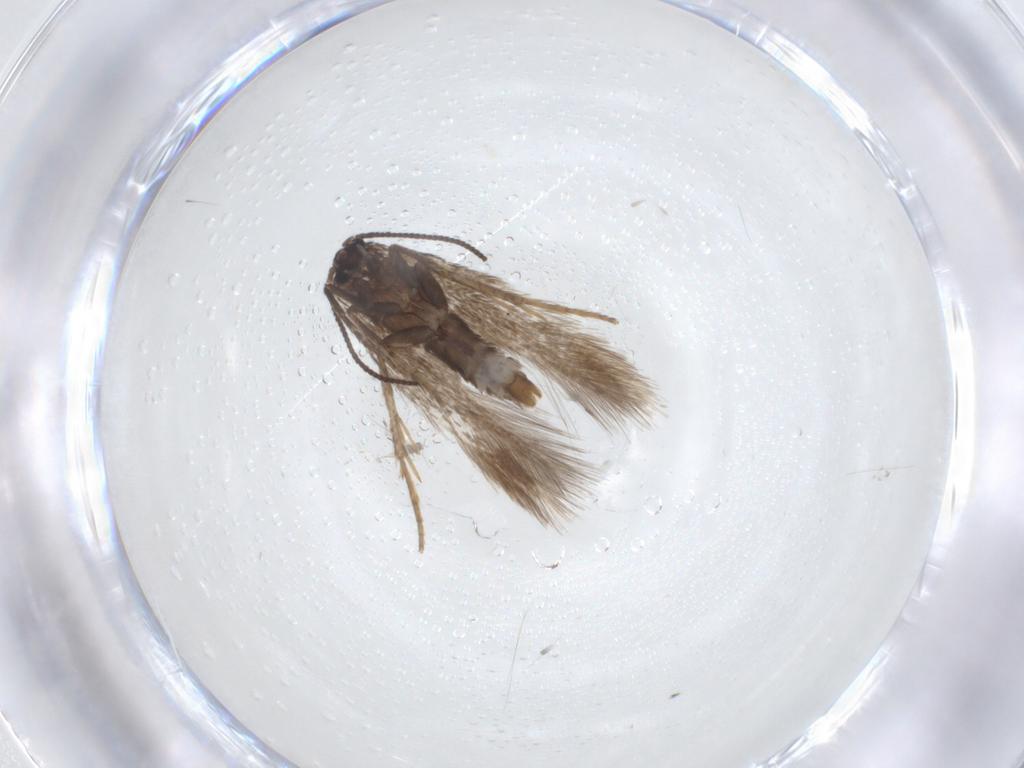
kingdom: Animalia
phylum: Arthropoda
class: Insecta
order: Lepidoptera
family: Nepticulidae
